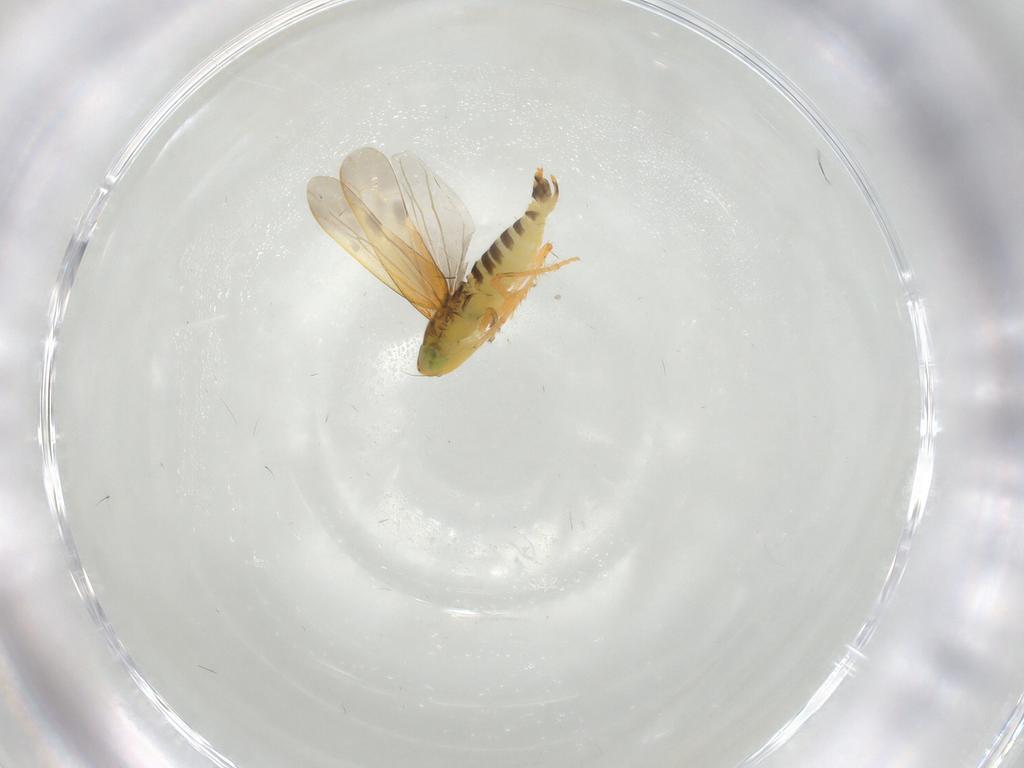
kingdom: Animalia
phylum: Arthropoda
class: Insecta
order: Hemiptera
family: Cicadellidae
